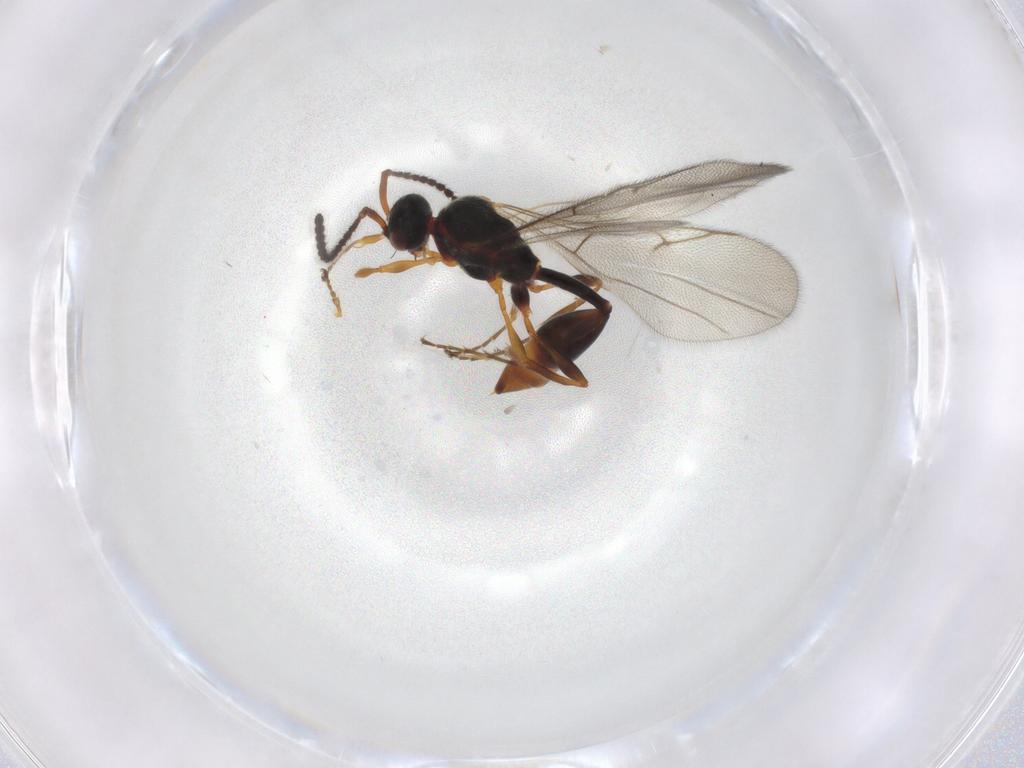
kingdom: Animalia
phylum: Arthropoda
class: Insecta
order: Hymenoptera
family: Diapriidae
